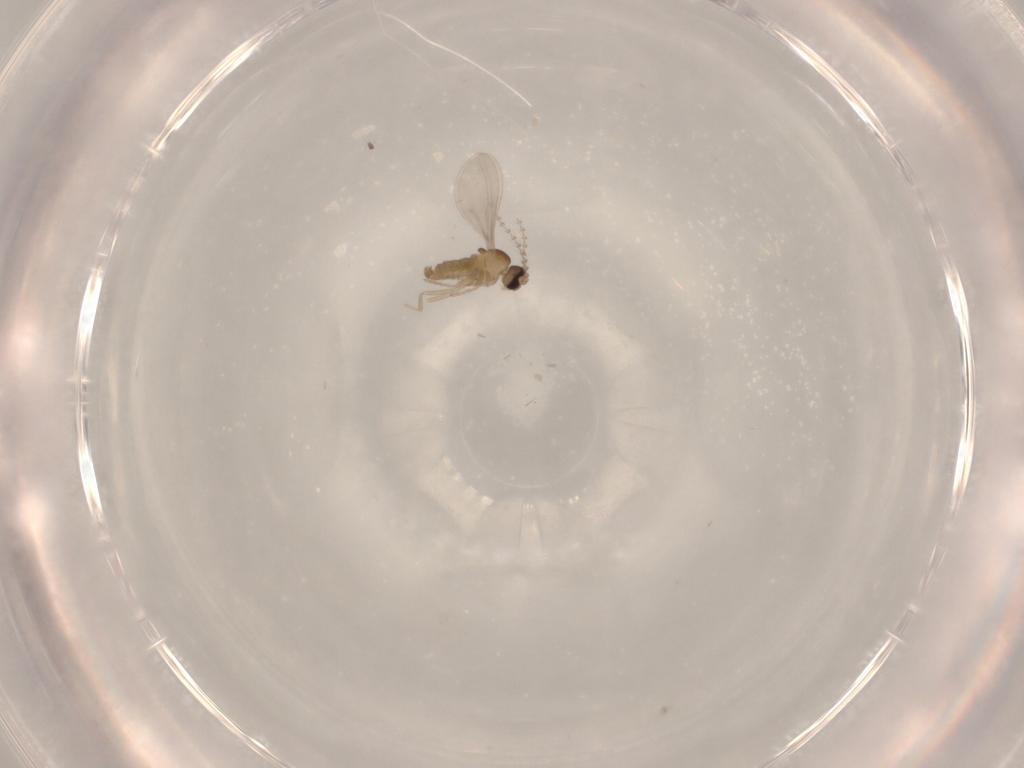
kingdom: Animalia
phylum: Arthropoda
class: Insecta
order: Diptera
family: Cecidomyiidae
